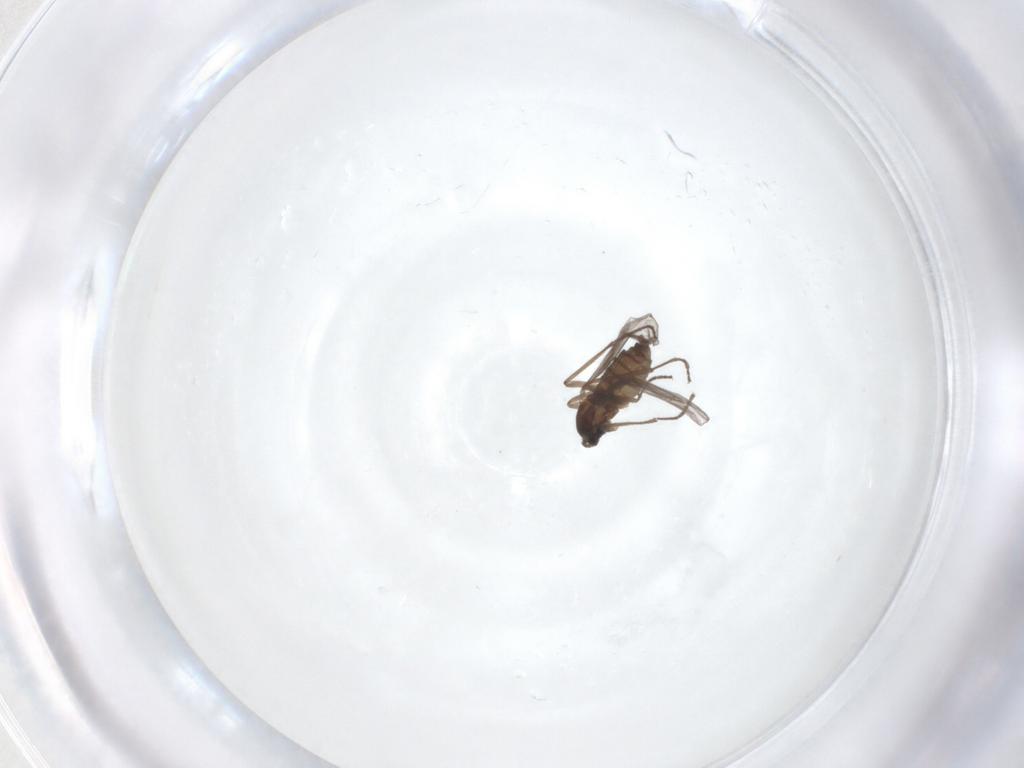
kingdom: Animalia
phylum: Arthropoda
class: Insecta
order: Diptera
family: Cecidomyiidae
